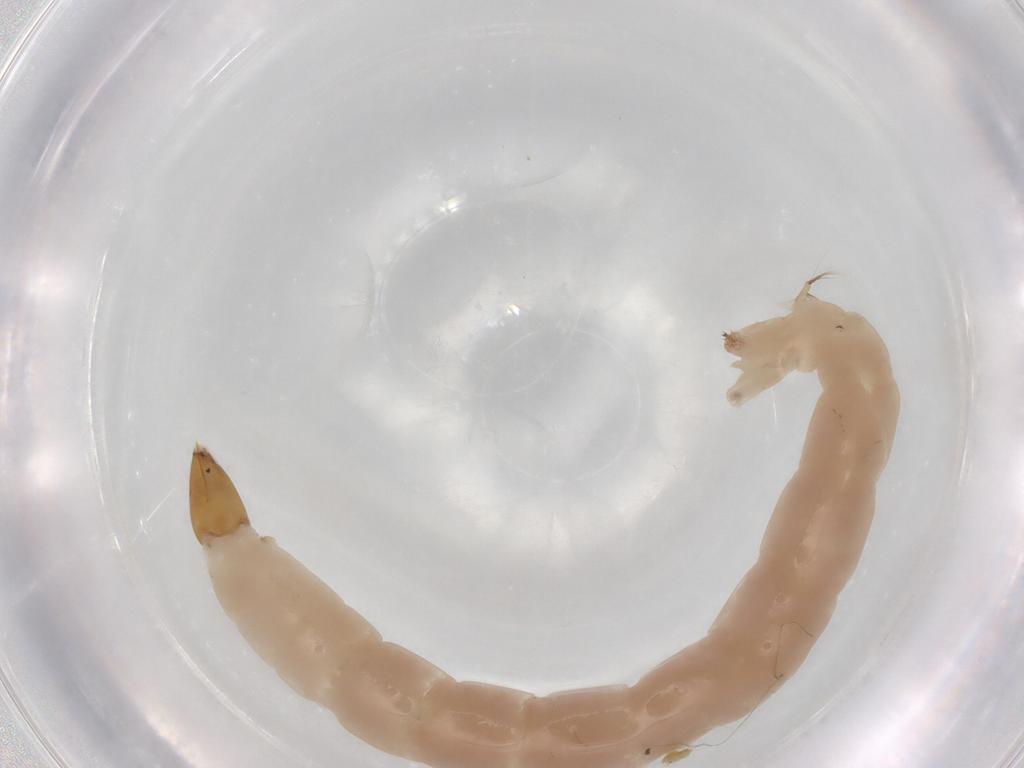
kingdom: Animalia
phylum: Arthropoda
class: Insecta
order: Diptera
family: Chironomidae
